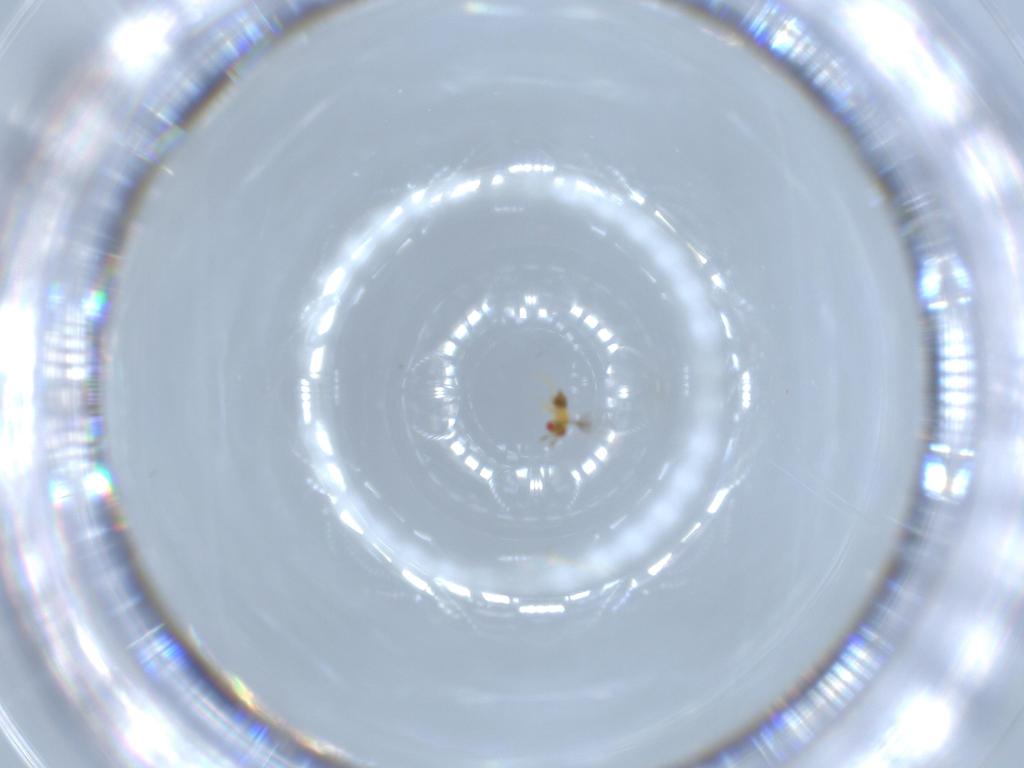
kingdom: Animalia
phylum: Arthropoda
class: Insecta
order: Hymenoptera
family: Trichogrammatidae
